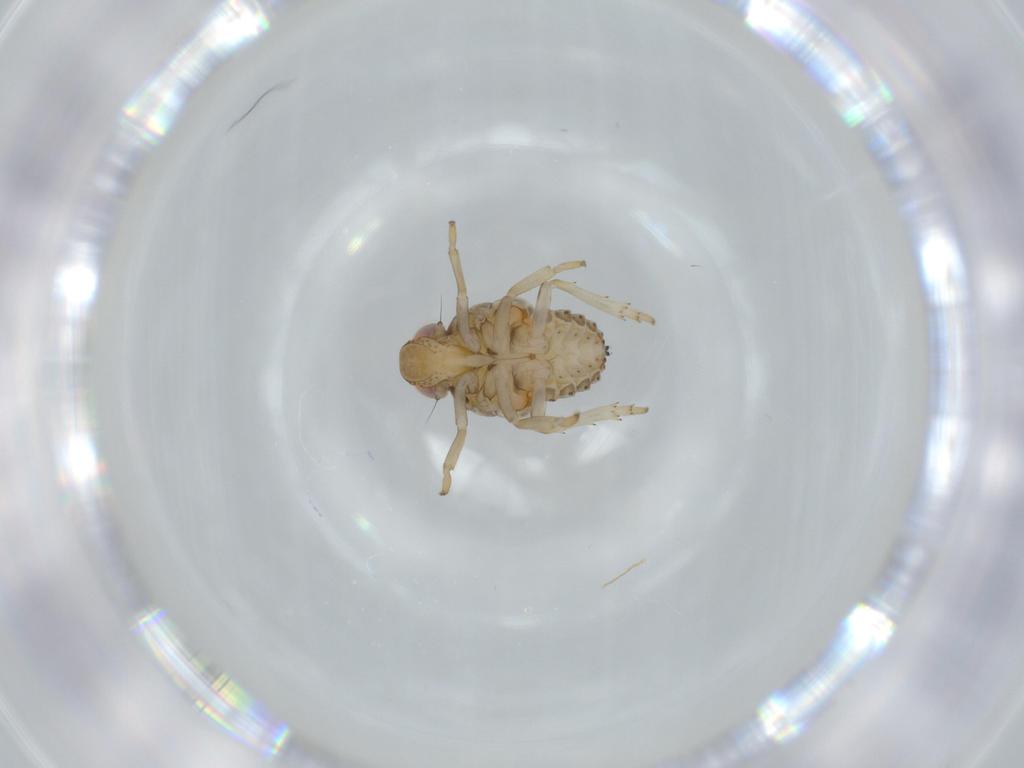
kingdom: Animalia
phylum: Arthropoda
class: Insecta
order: Hemiptera
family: Issidae
